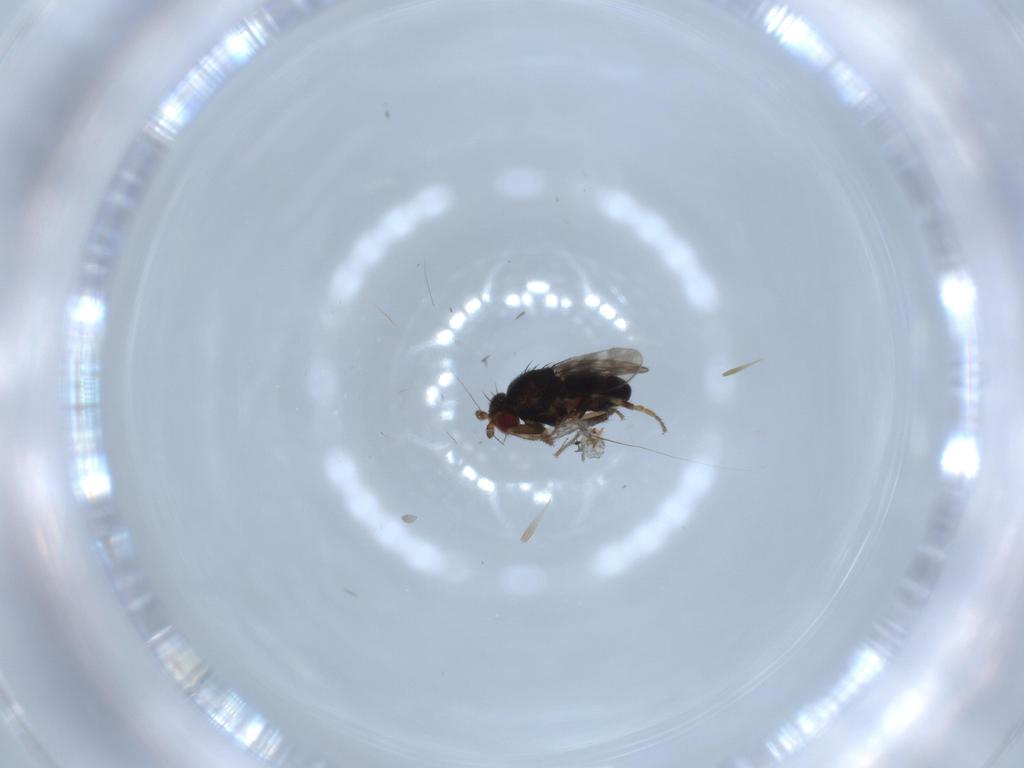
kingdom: Animalia
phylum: Arthropoda
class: Insecta
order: Diptera
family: Sphaeroceridae
